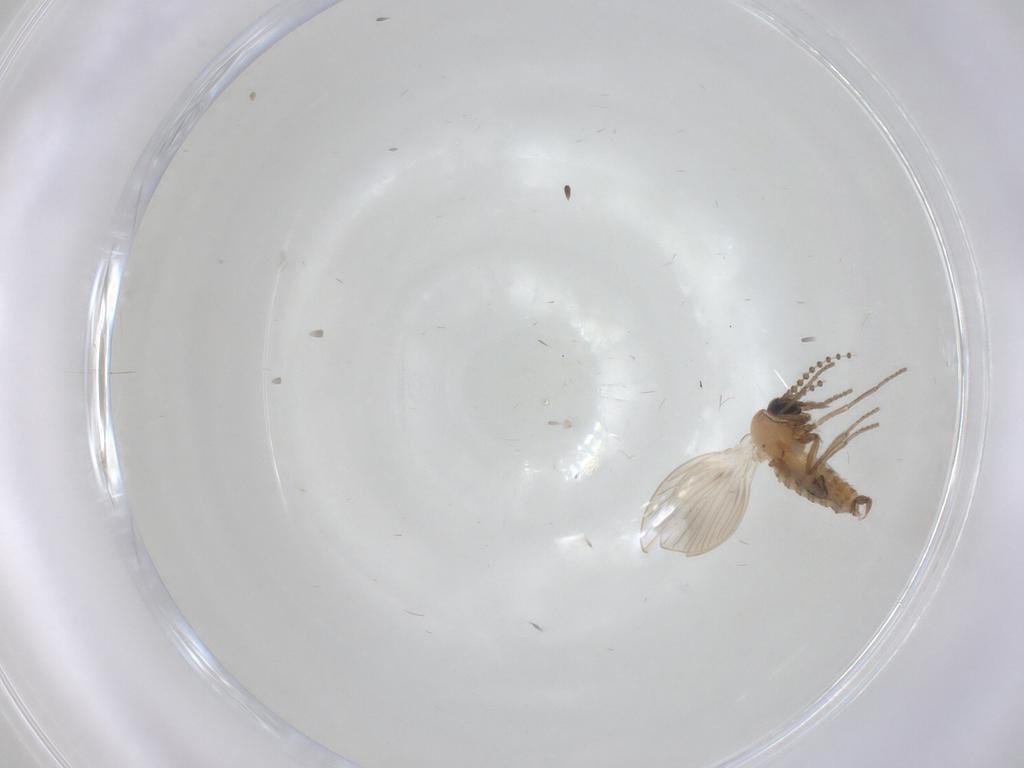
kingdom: Animalia
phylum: Arthropoda
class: Insecta
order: Diptera
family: Psychodidae
